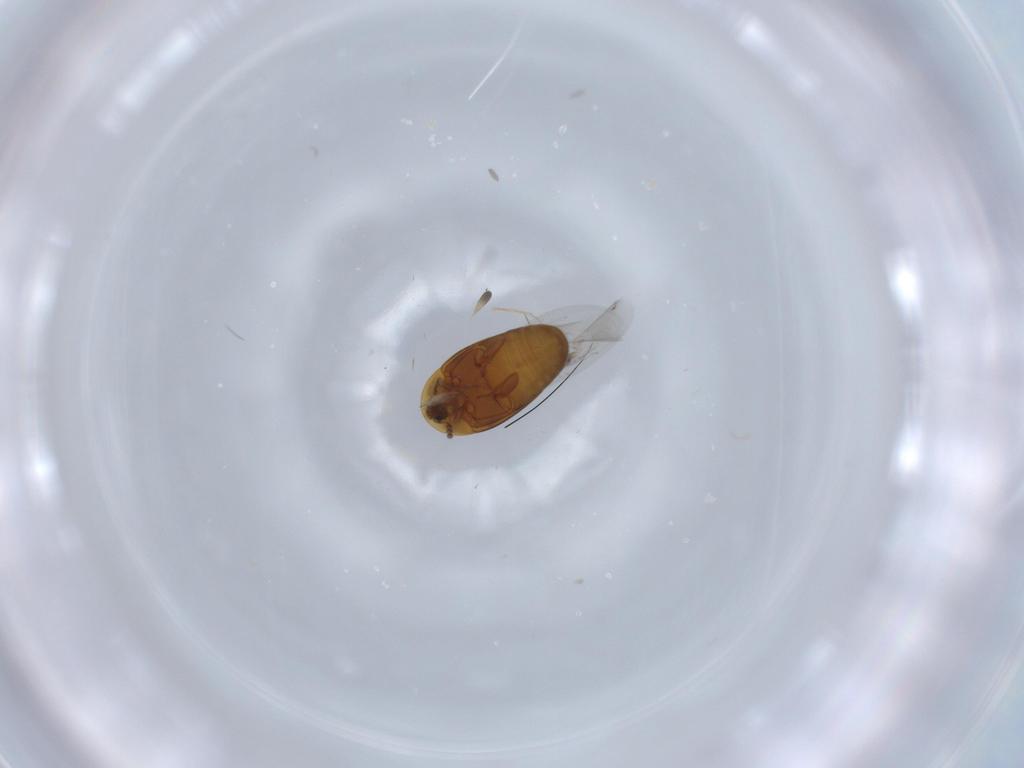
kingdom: Animalia
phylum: Arthropoda
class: Insecta
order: Coleoptera
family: Corylophidae
